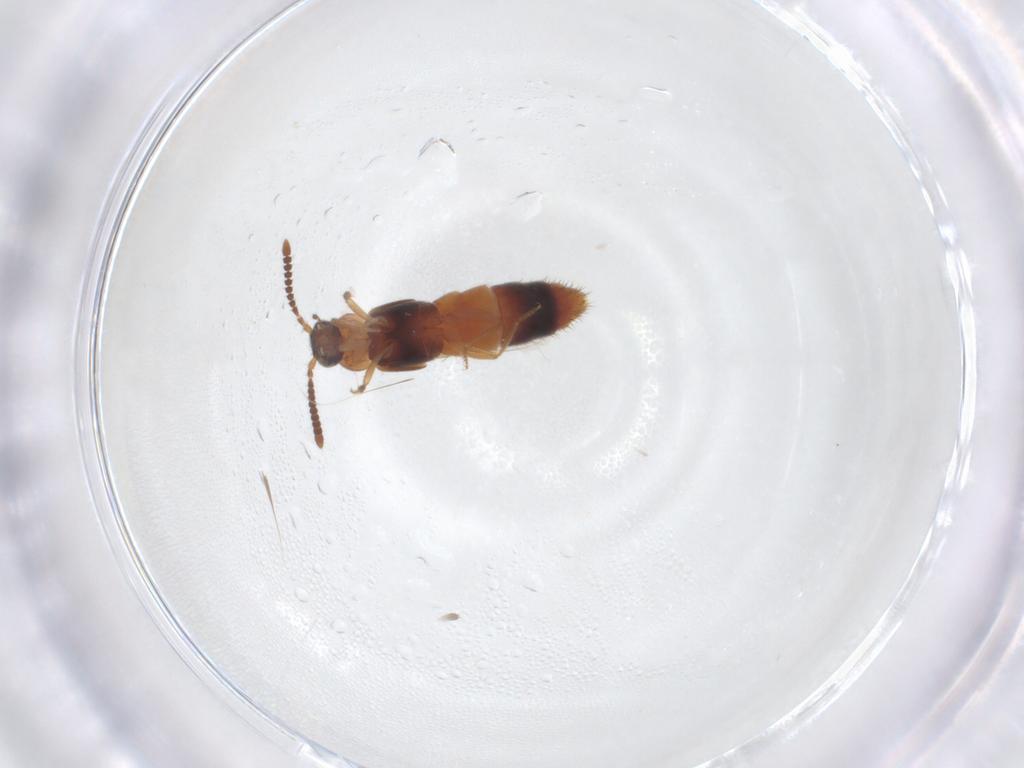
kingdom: Animalia
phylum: Arthropoda
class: Insecta
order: Coleoptera
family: Staphylinidae
